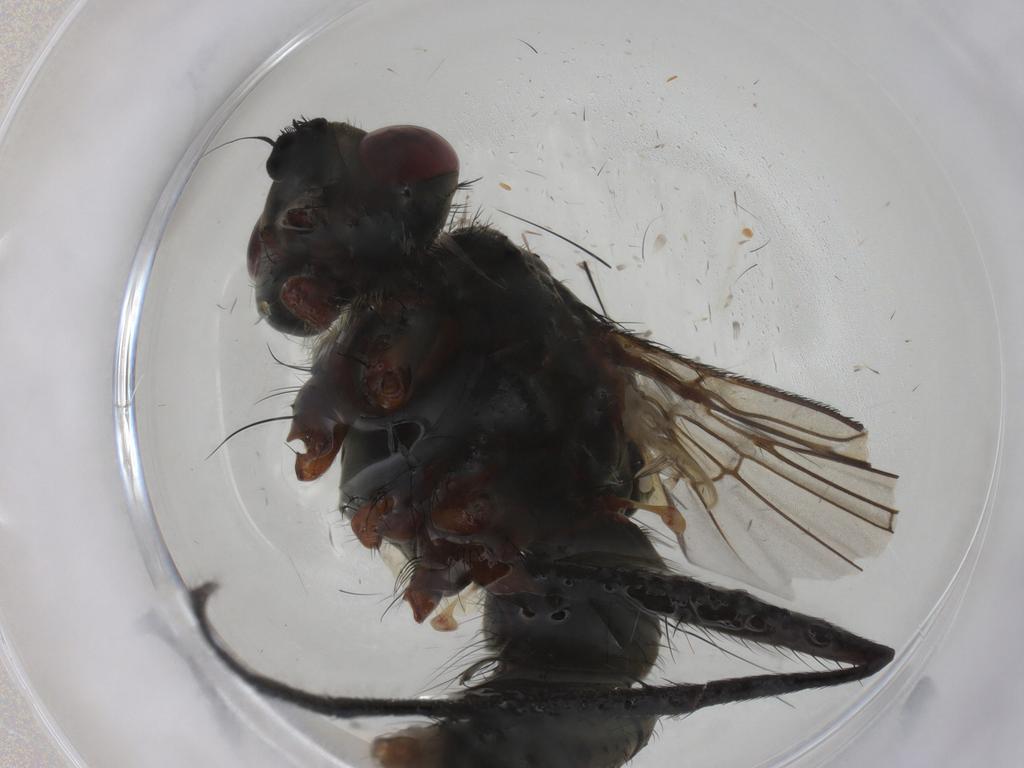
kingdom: Animalia
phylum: Arthropoda
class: Insecta
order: Diptera
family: Tachinidae
